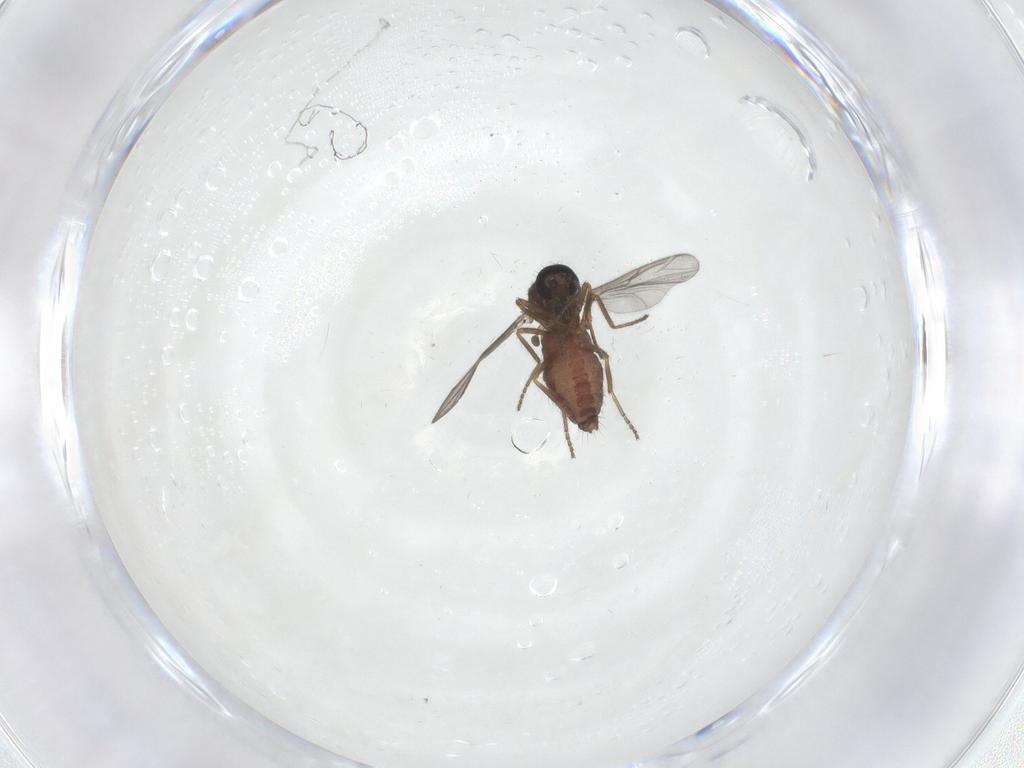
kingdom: Animalia
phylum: Arthropoda
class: Insecta
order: Diptera
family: Ceratopogonidae
